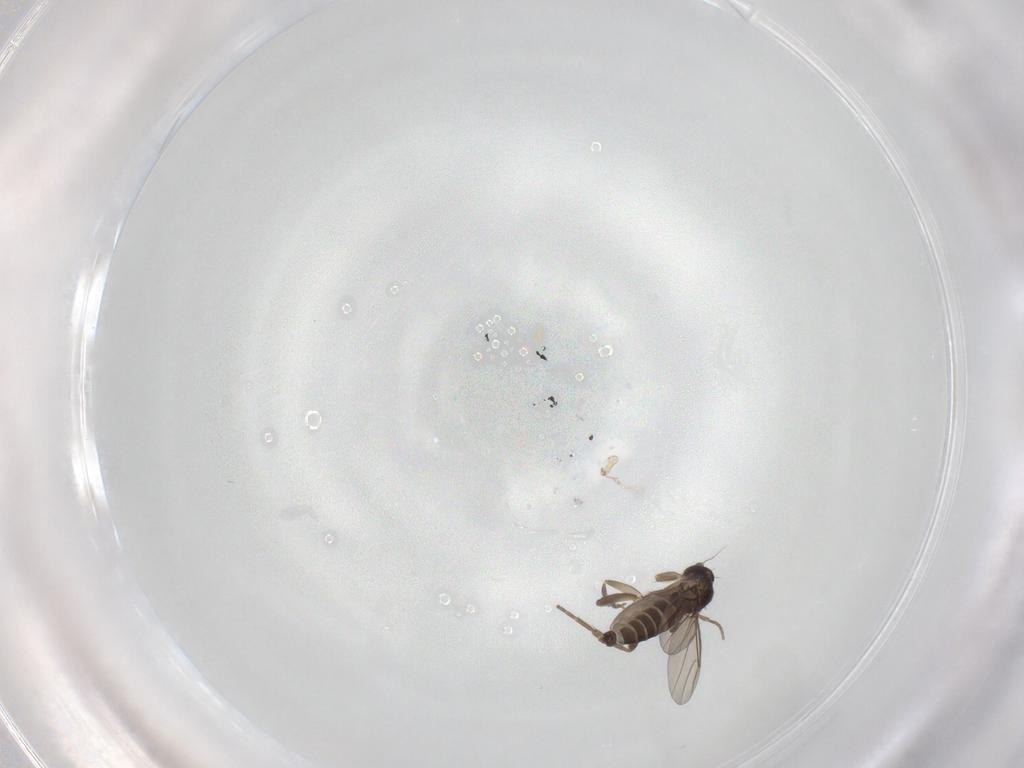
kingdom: Animalia
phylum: Arthropoda
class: Insecta
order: Diptera
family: Phoridae
